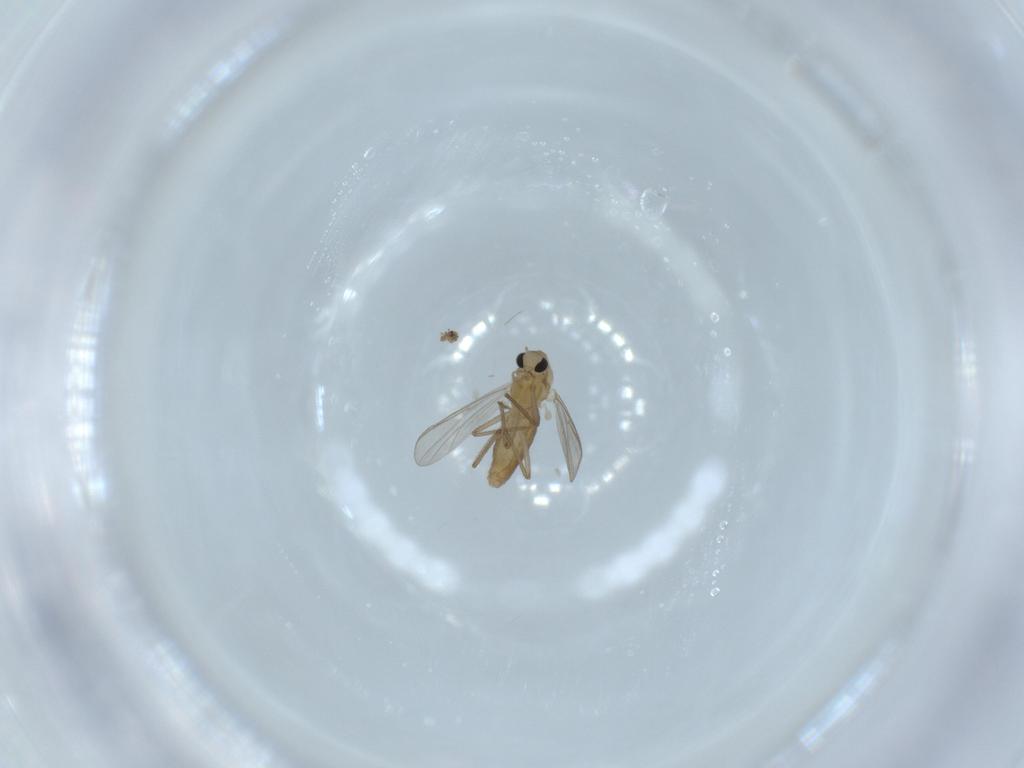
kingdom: Animalia
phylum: Arthropoda
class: Insecta
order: Diptera
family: Chironomidae
